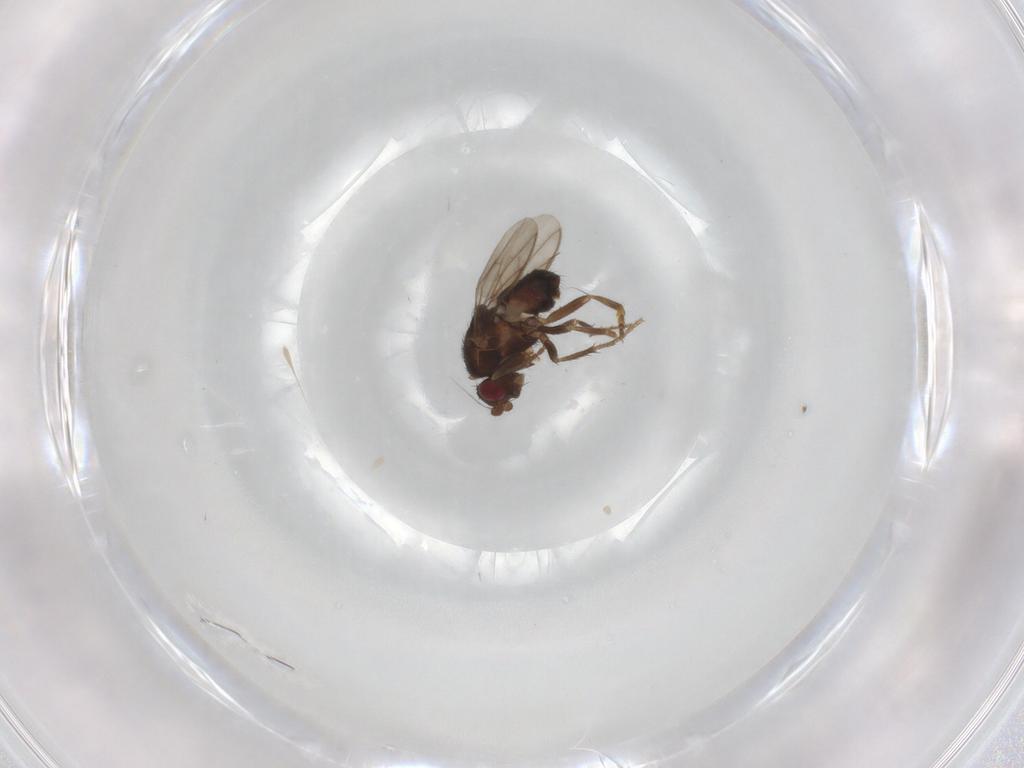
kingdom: Animalia
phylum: Arthropoda
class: Insecta
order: Diptera
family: Sphaeroceridae
